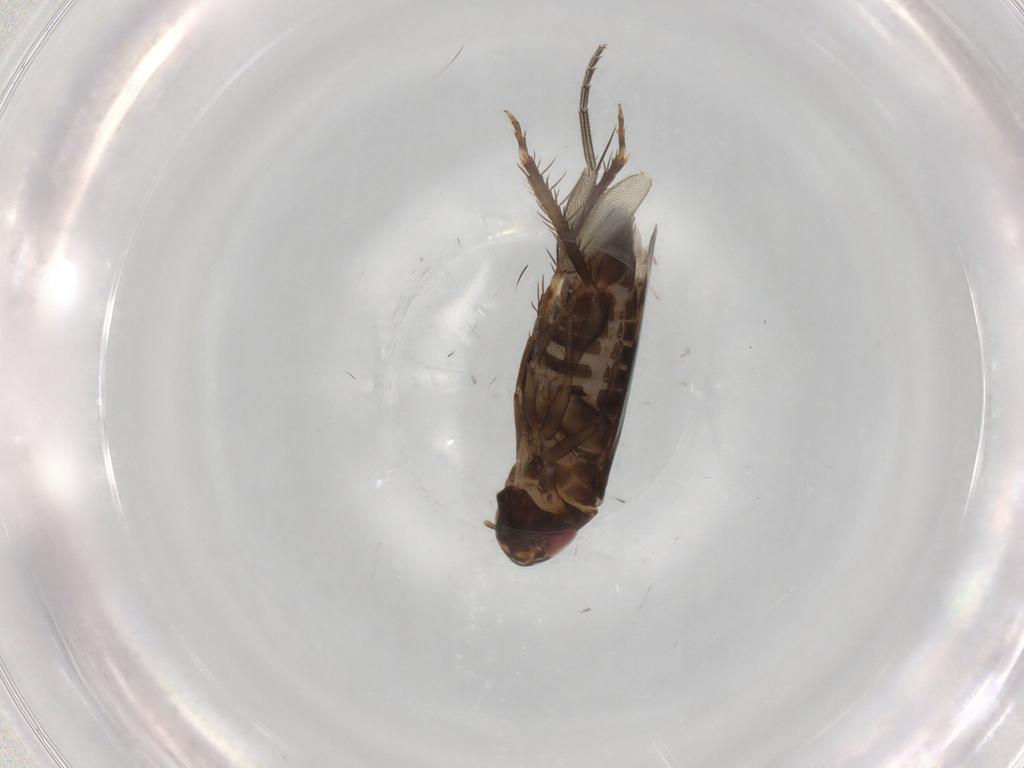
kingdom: Animalia
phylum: Arthropoda
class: Insecta
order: Hemiptera
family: Cicadellidae
